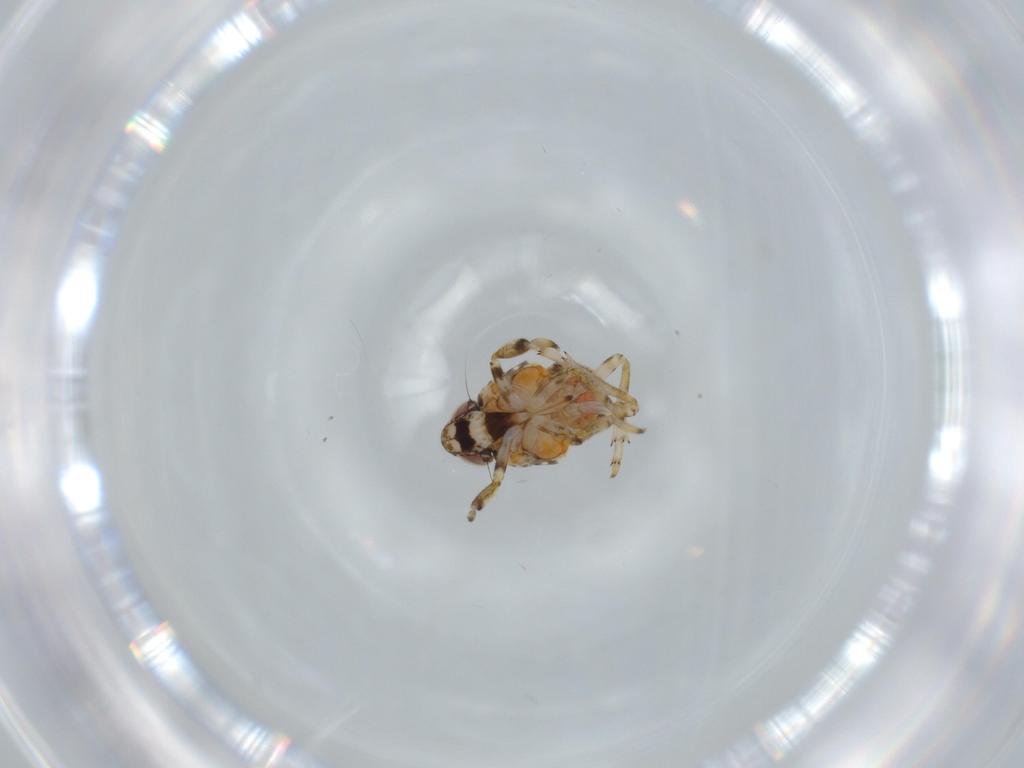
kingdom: Animalia
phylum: Arthropoda
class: Insecta
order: Hemiptera
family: Issidae
